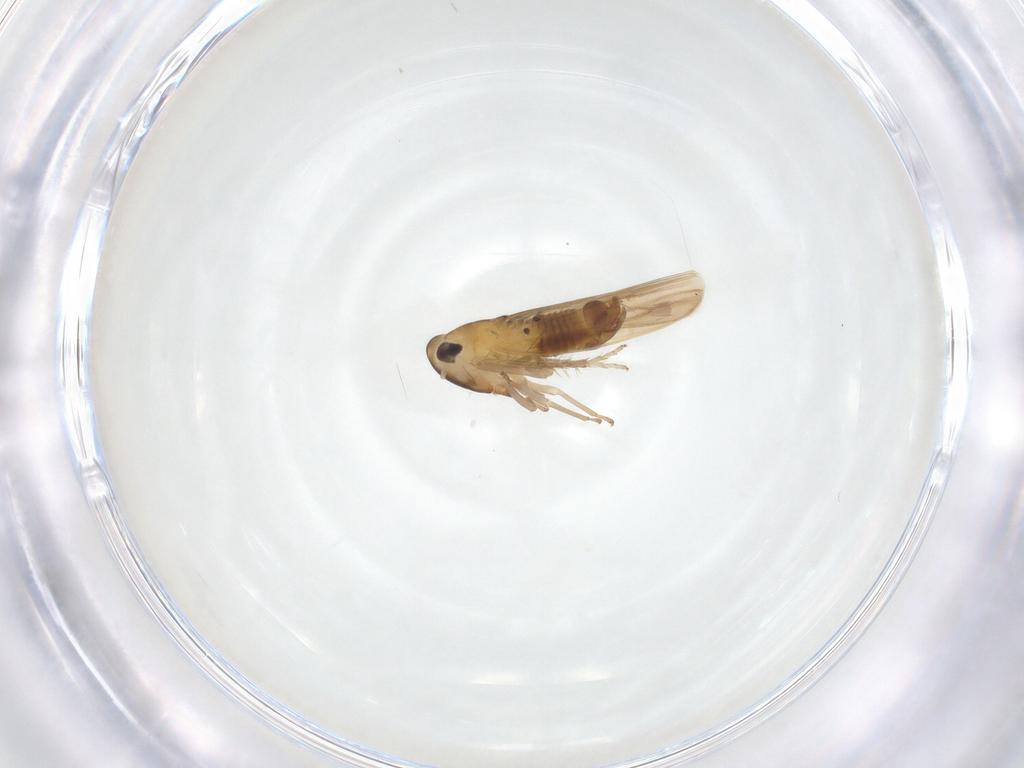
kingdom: Animalia
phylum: Arthropoda
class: Insecta
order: Hemiptera
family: Cicadellidae
